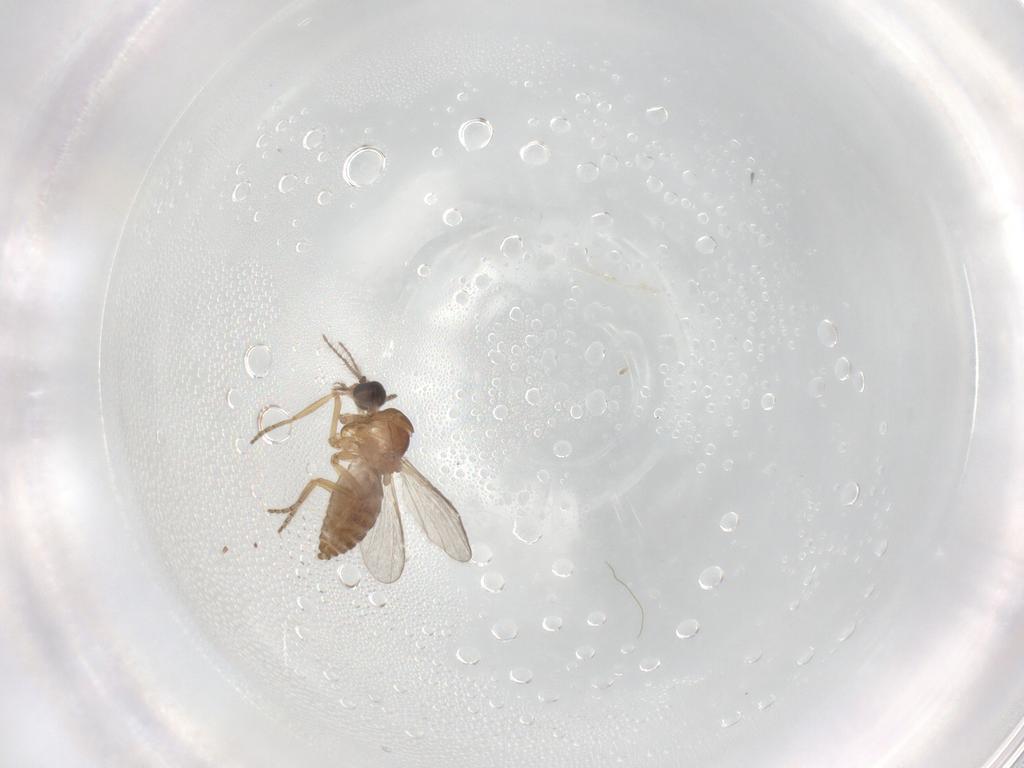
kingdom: Animalia
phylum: Arthropoda
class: Insecta
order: Diptera
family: Ceratopogonidae
